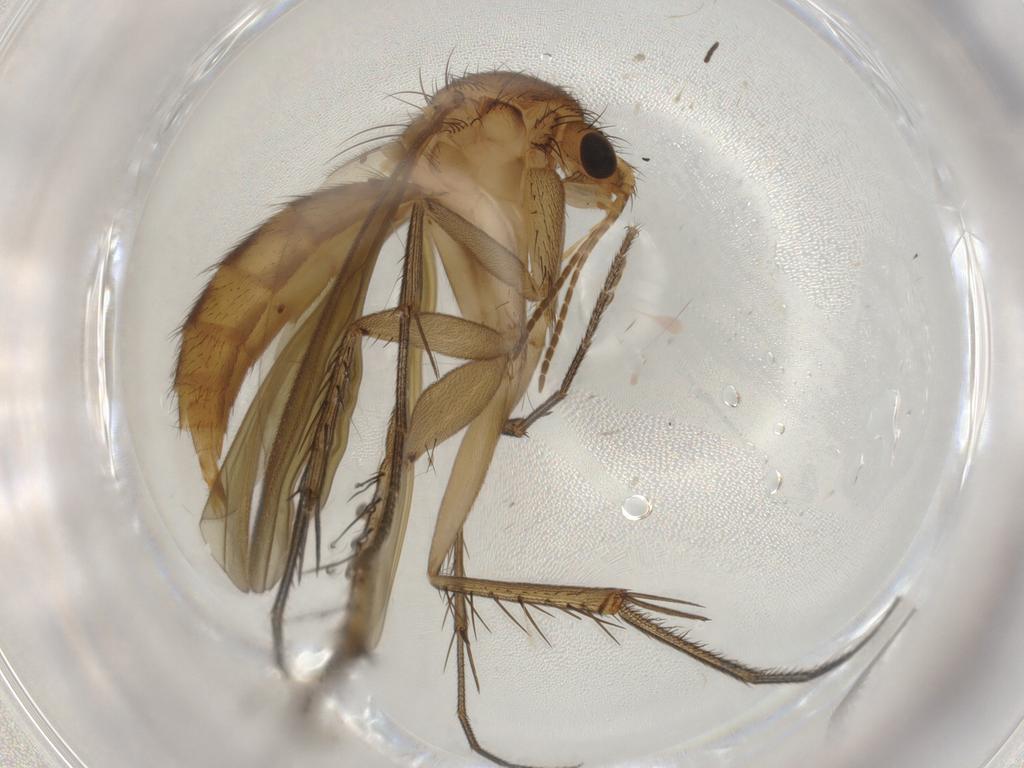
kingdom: Animalia
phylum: Arthropoda
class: Insecta
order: Diptera
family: Mycetophilidae
